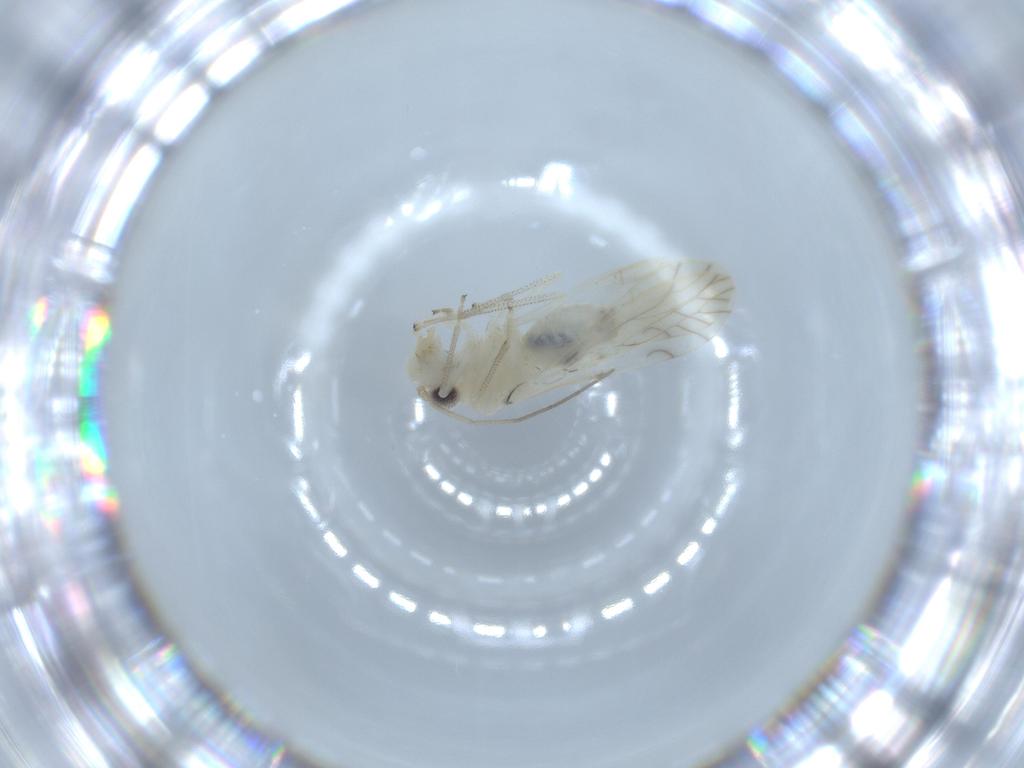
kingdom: Animalia
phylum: Arthropoda
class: Insecta
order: Psocodea
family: Caeciliusidae
